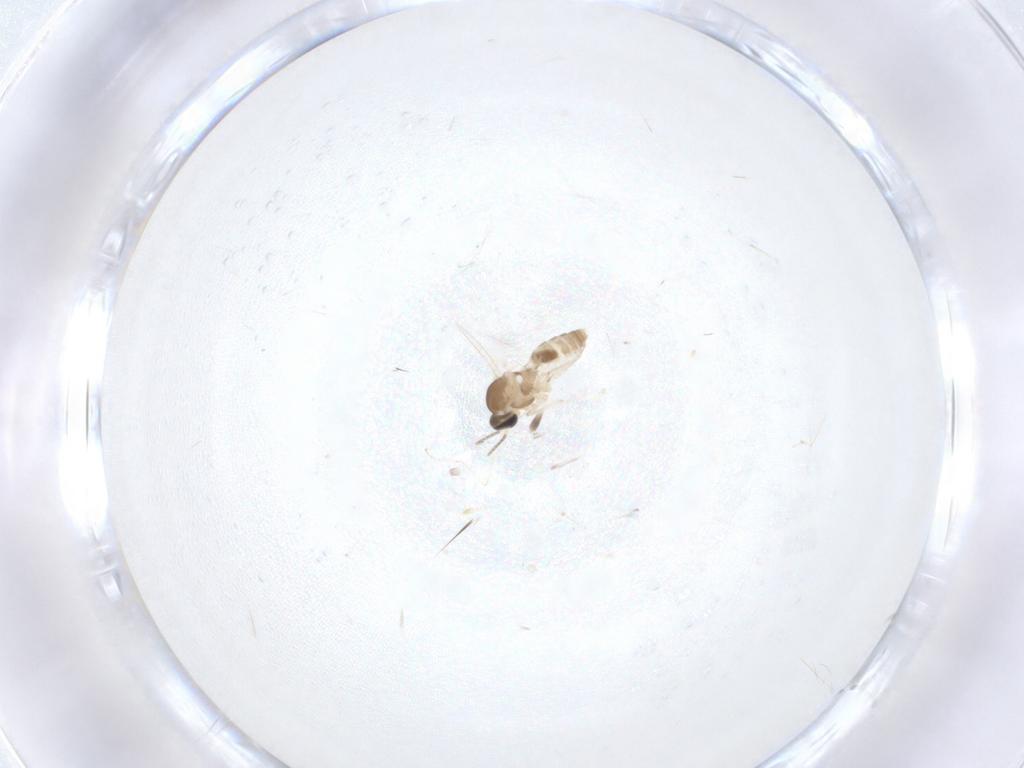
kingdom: Animalia
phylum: Arthropoda
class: Insecta
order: Diptera
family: Cecidomyiidae
